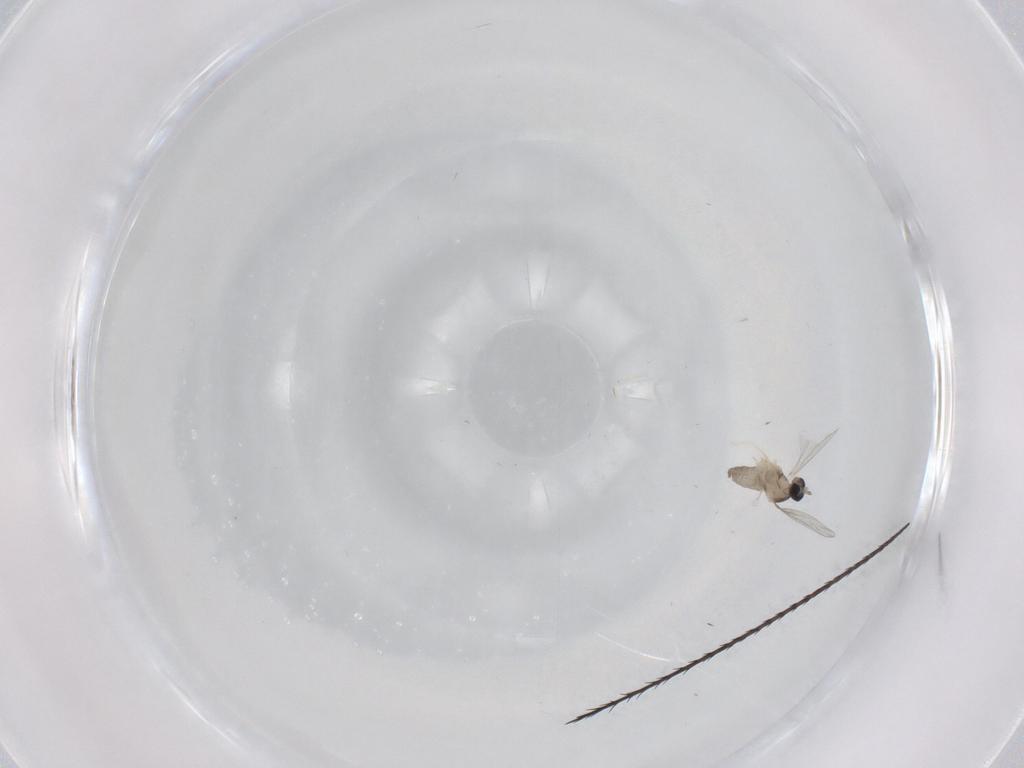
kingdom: Animalia
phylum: Arthropoda
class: Insecta
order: Diptera
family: Cecidomyiidae
